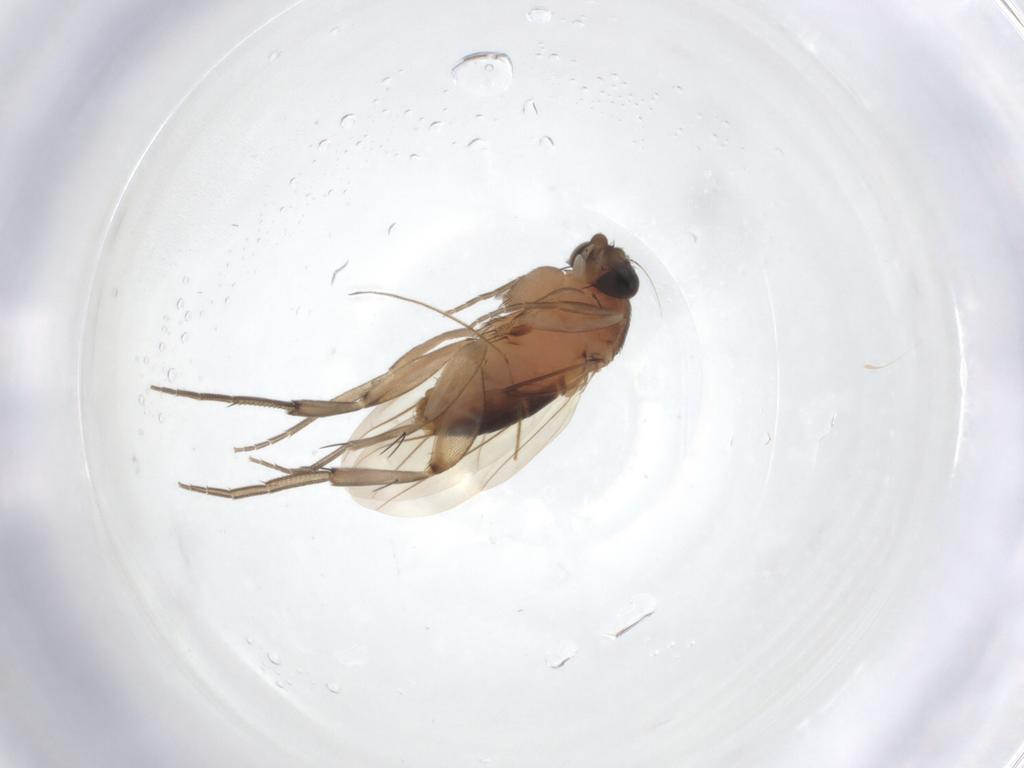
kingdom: Animalia
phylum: Arthropoda
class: Insecta
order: Diptera
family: Phoridae
